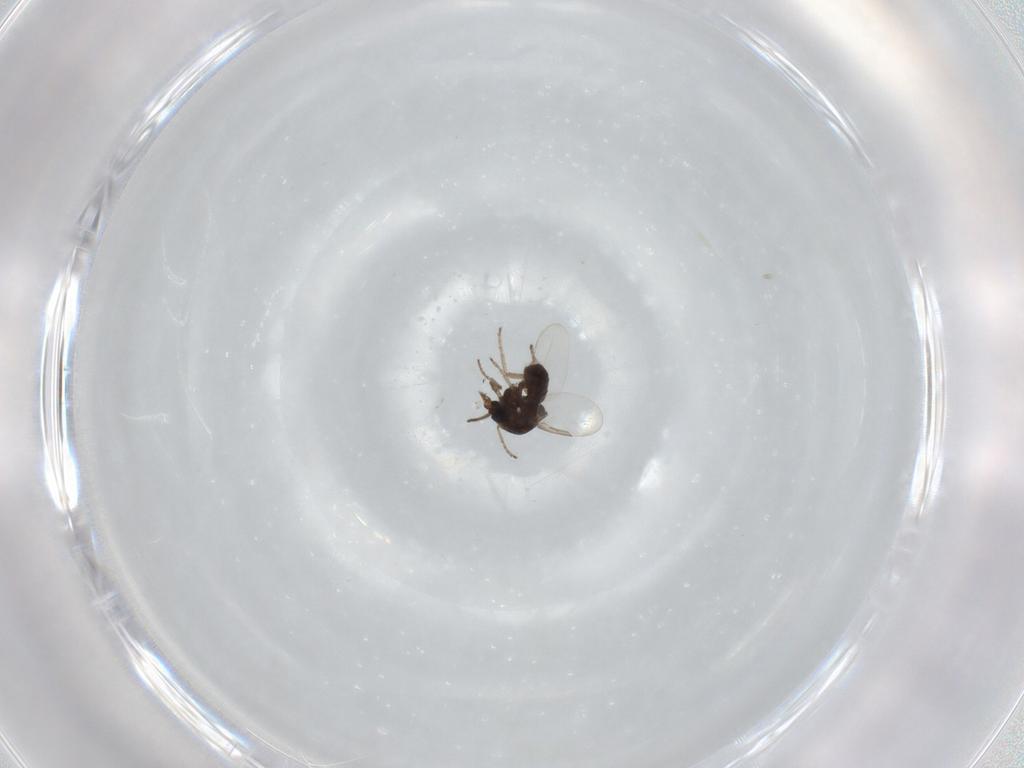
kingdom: Animalia
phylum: Arthropoda
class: Insecta
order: Diptera
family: Ceratopogonidae
